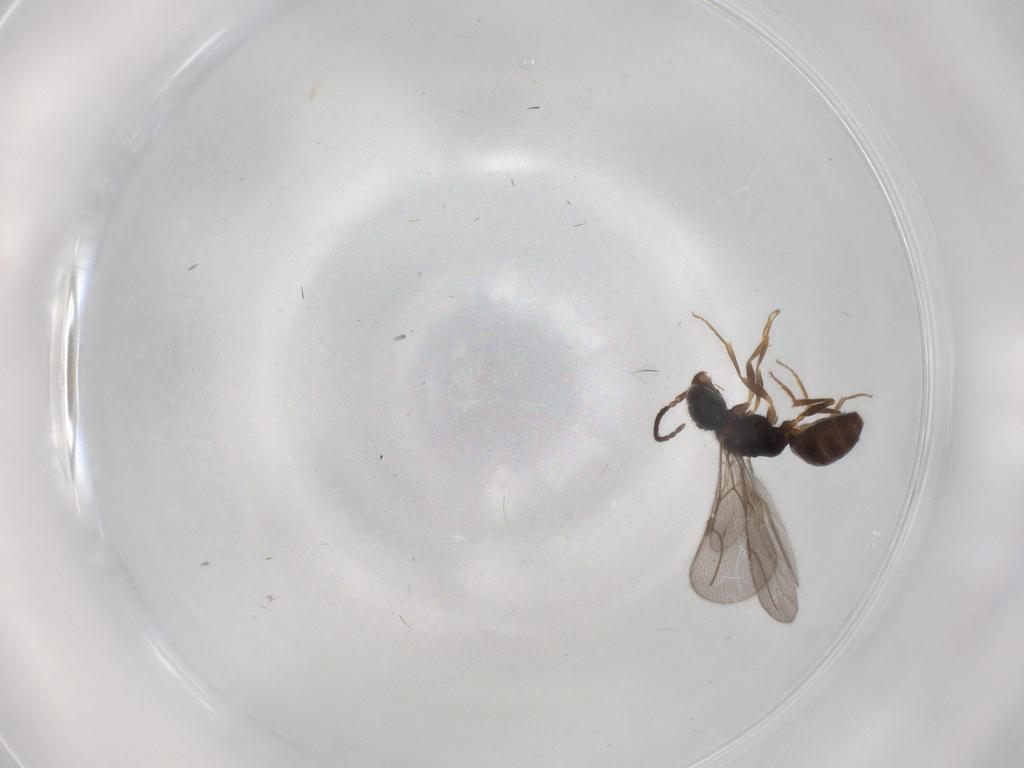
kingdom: Animalia
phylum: Arthropoda
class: Insecta
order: Hymenoptera
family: Bethylidae
